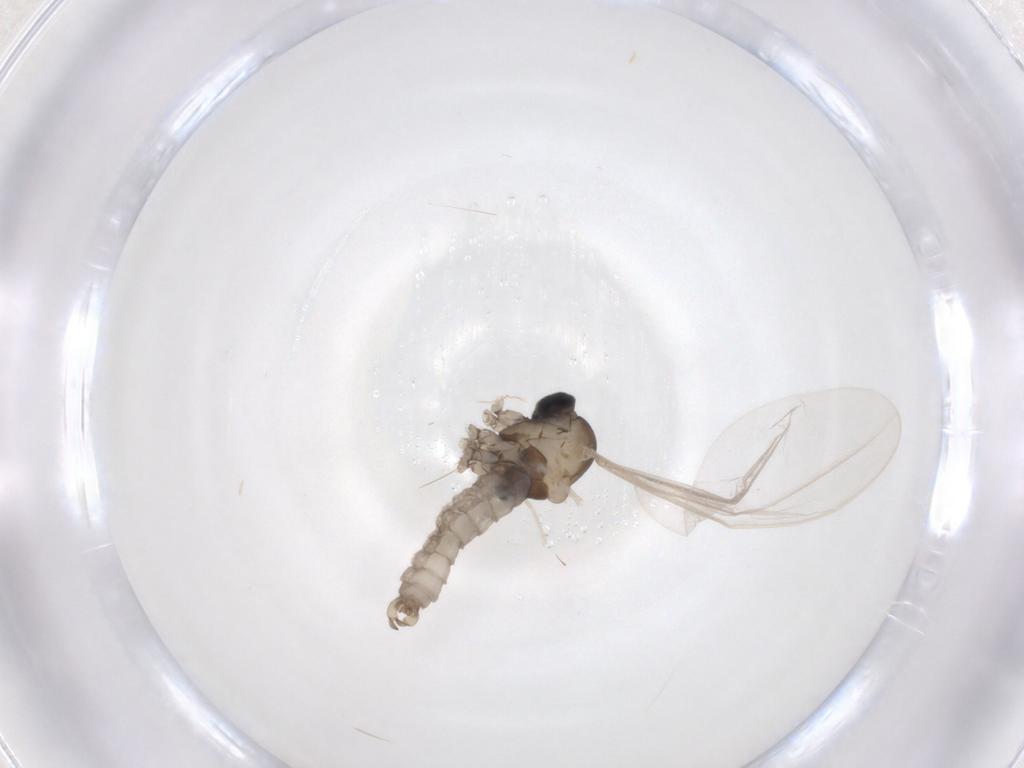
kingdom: Animalia
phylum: Arthropoda
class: Insecta
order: Diptera
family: Cecidomyiidae
